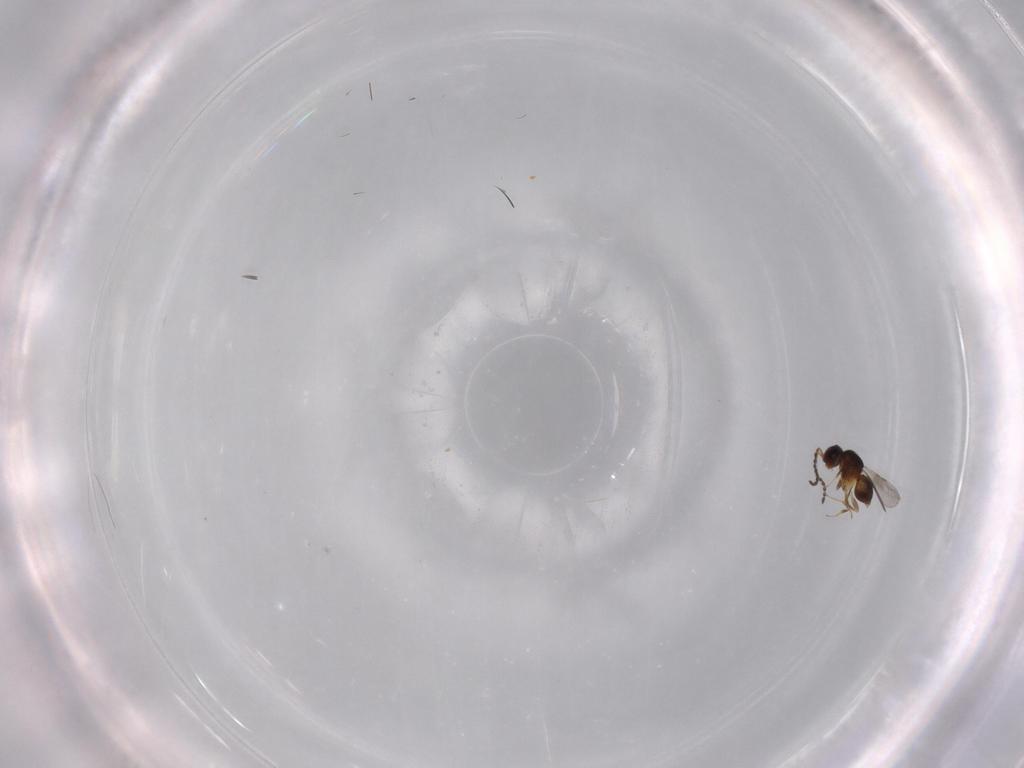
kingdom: Animalia
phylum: Arthropoda
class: Insecta
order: Hymenoptera
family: Ceraphronidae
